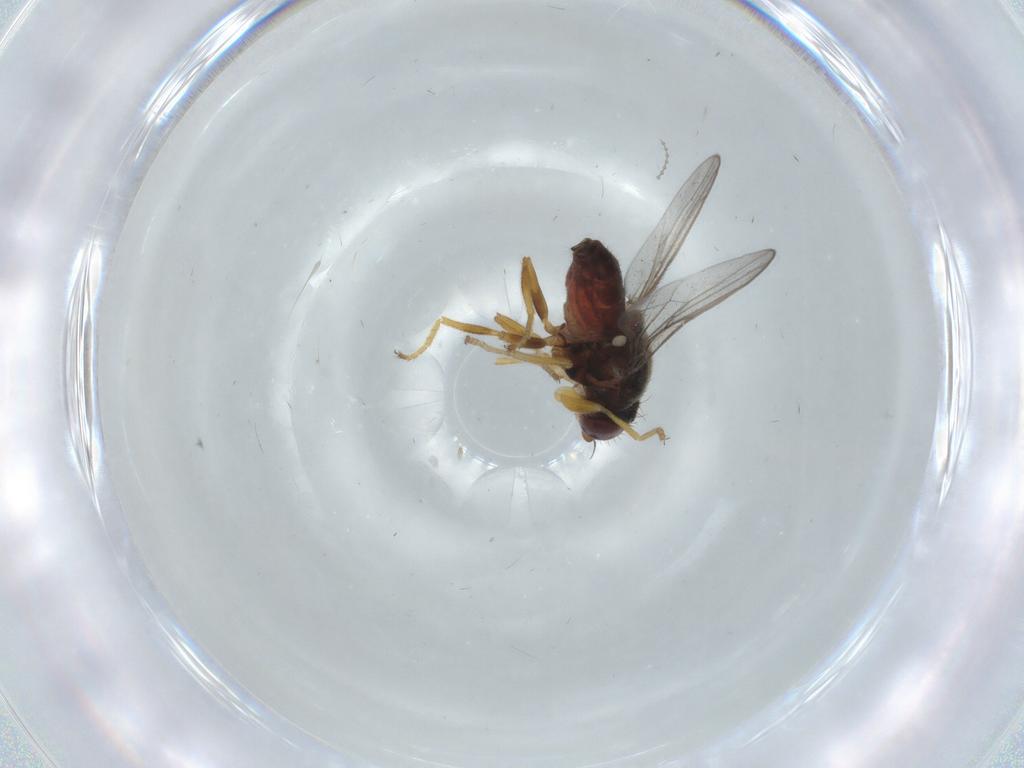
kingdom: Animalia
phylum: Arthropoda
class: Insecta
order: Diptera
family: Chloropidae
